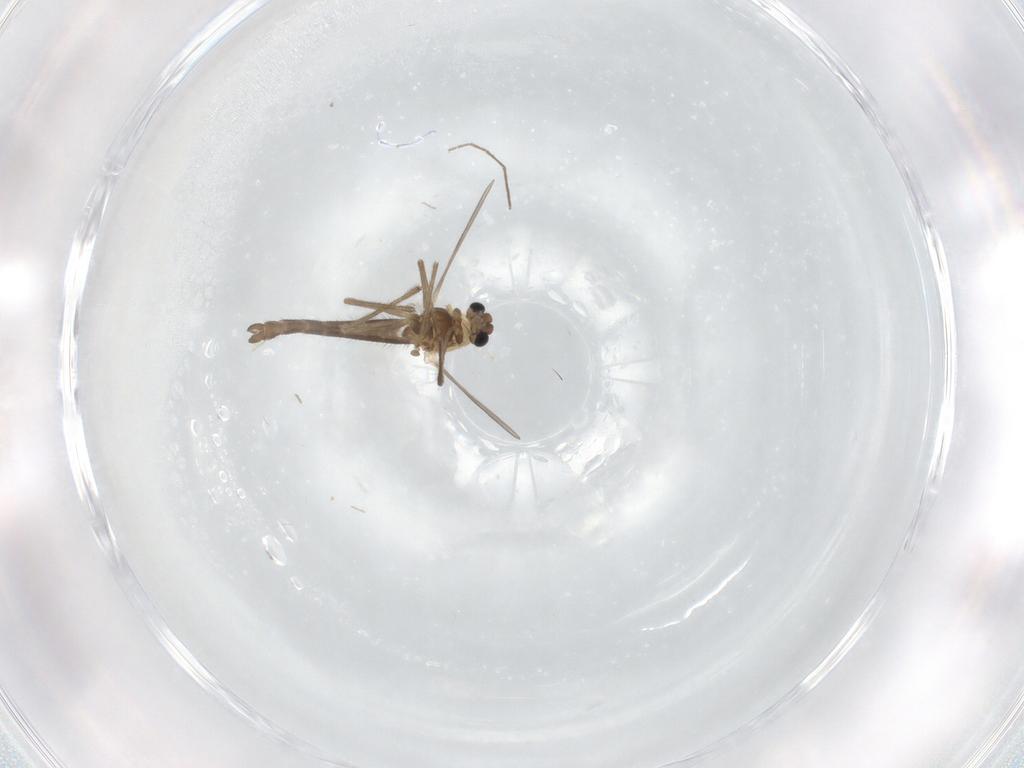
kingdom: Animalia
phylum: Arthropoda
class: Insecta
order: Diptera
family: Chironomidae
